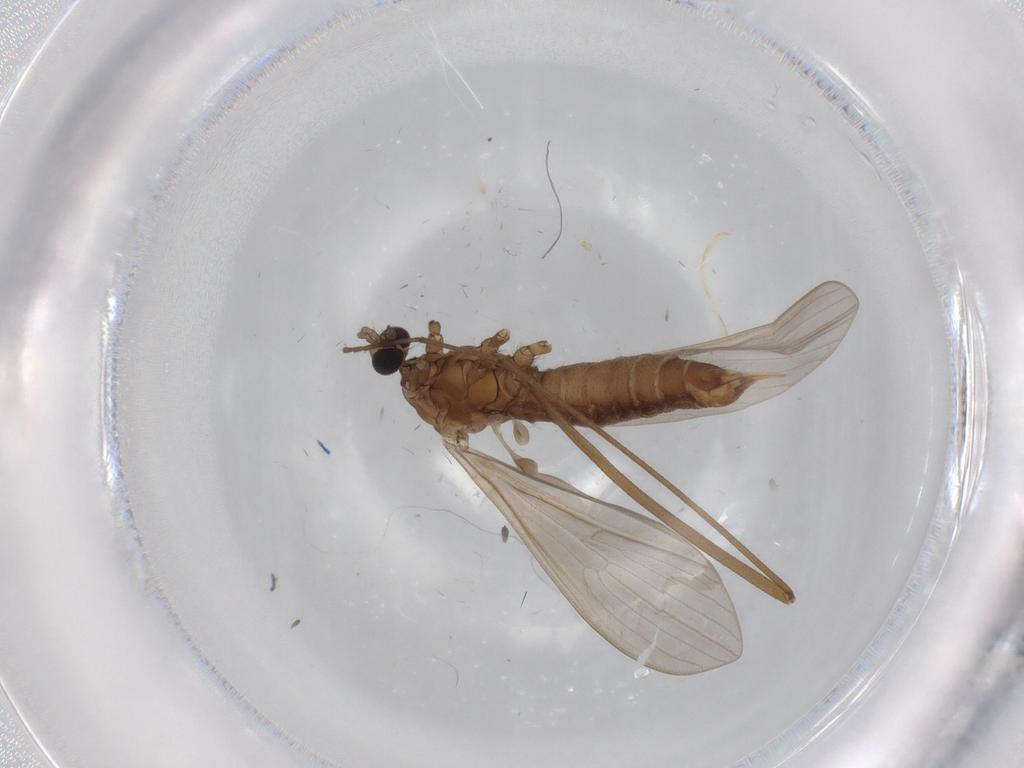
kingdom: Animalia
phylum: Arthropoda
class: Insecta
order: Diptera
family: Limoniidae
